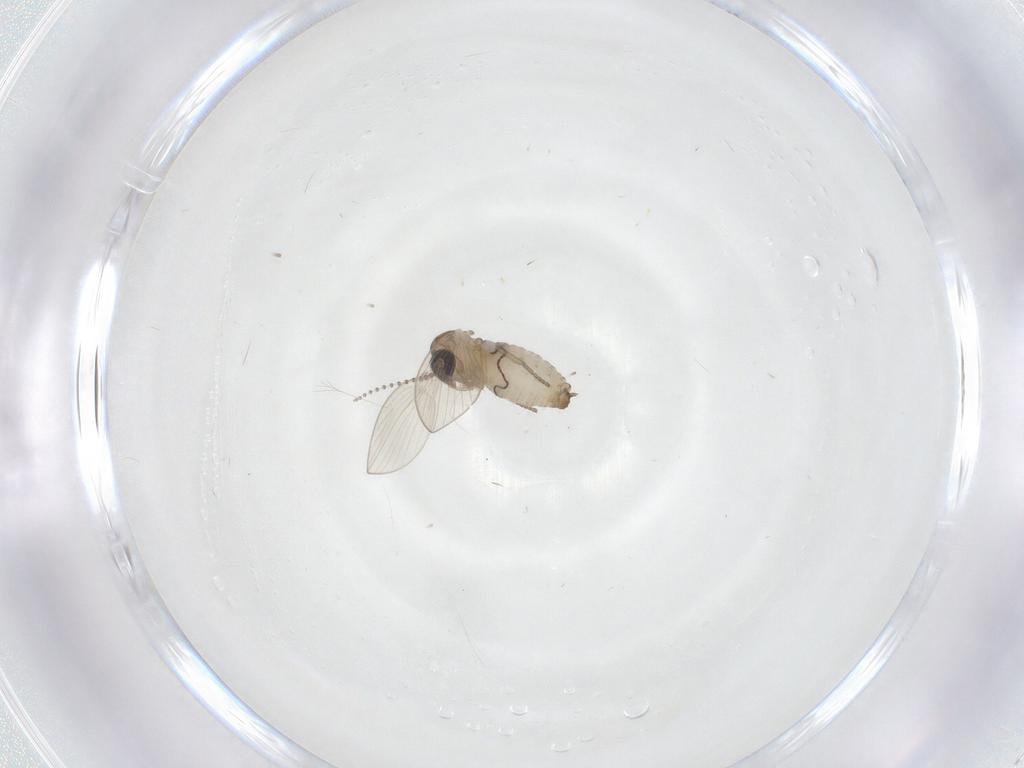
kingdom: Animalia
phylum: Arthropoda
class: Insecta
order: Diptera
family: Psychodidae
